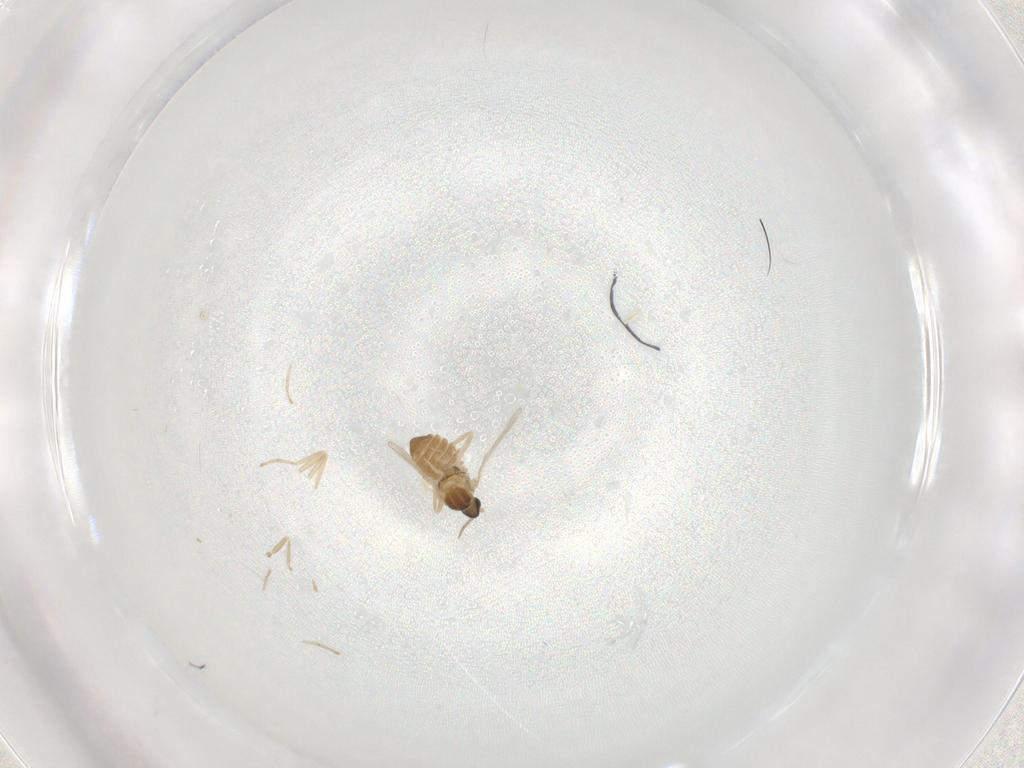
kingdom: Animalia
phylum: Arthropoda
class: Insecta
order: Diptera
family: Cecidomyiidae
